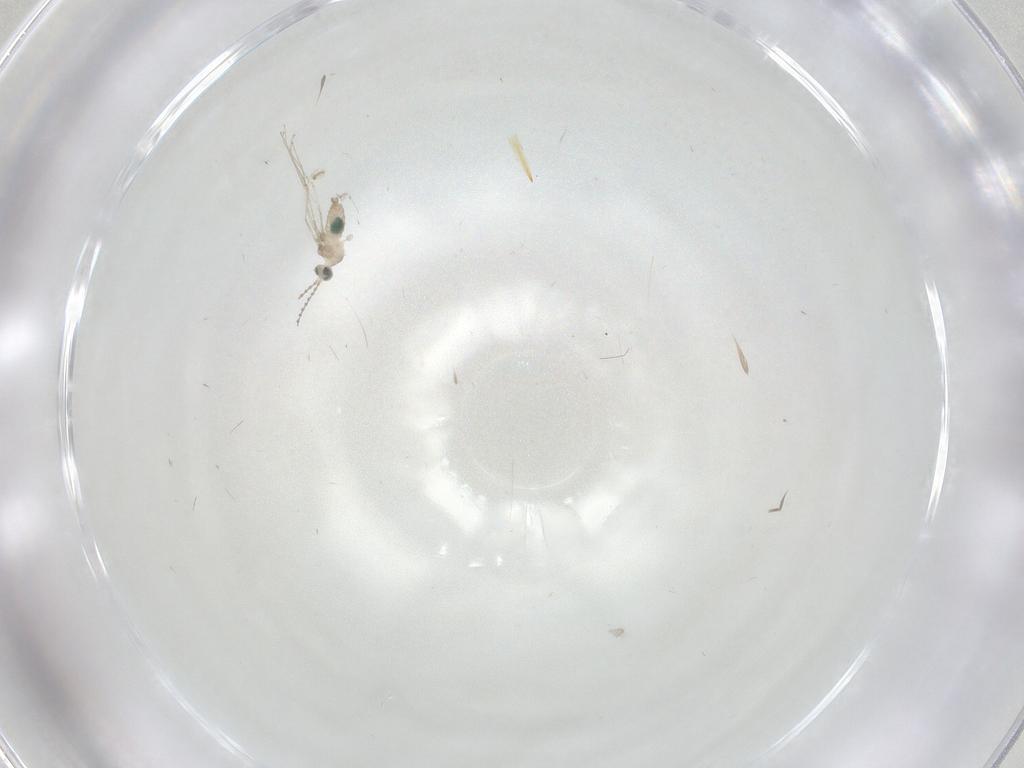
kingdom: Animalia
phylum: Arthropoda
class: Insecta
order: Diptera
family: Cecidomyiidae
